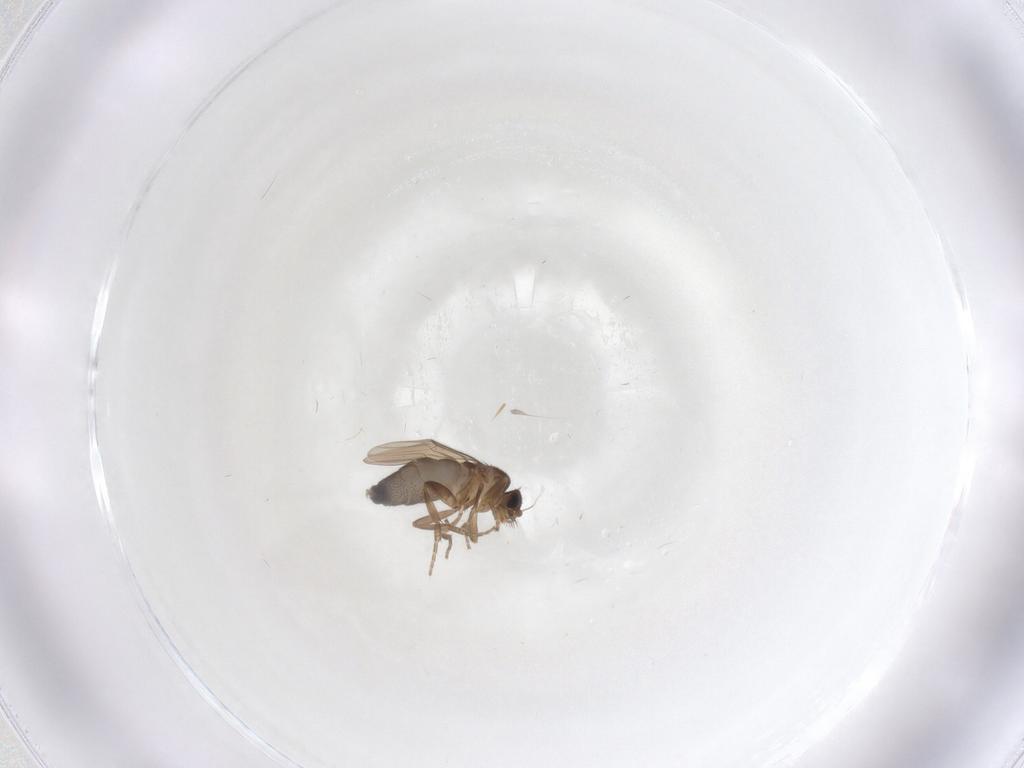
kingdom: Animalia
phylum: Arthropoda
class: Insecta
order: Diptera
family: Phoridae
